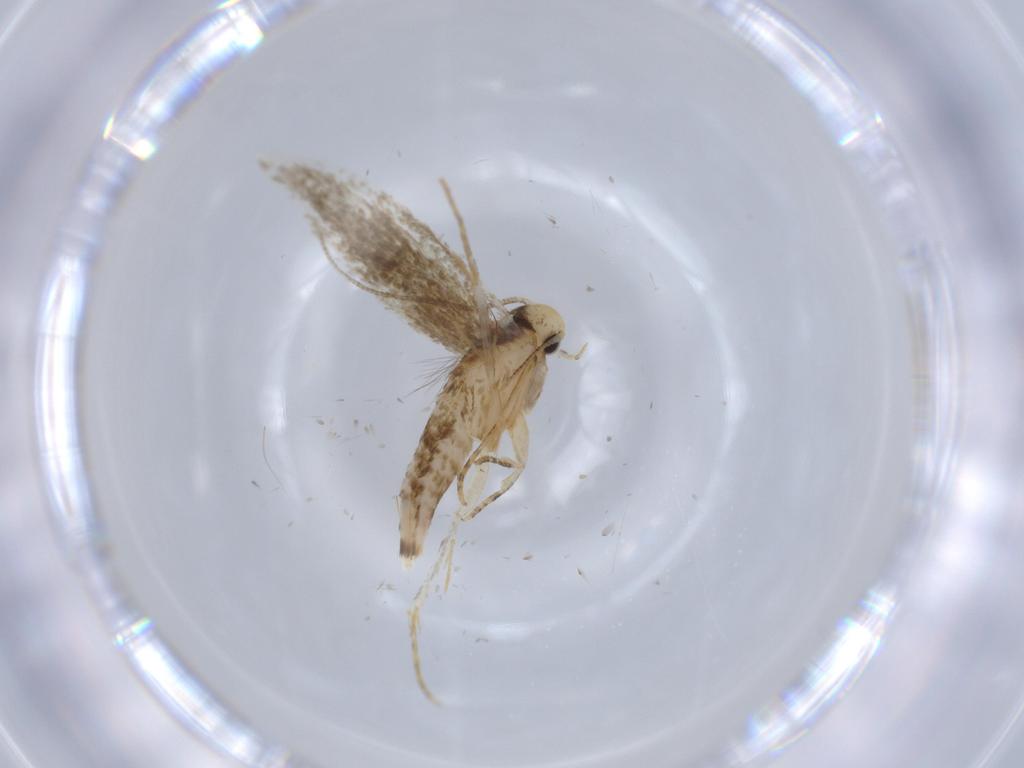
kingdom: Animalia
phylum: Arthropoda
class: Insecta
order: Lepidoptera
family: Tineidae
